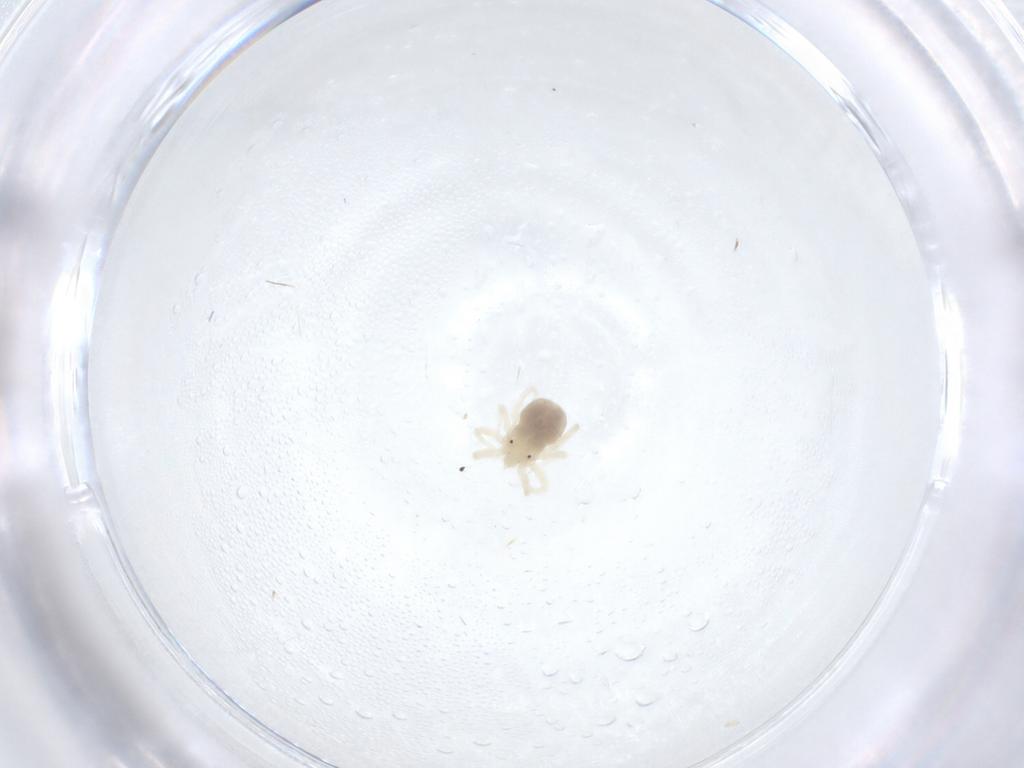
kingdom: Animalia
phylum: Arthropoda
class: Arachnida
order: Trombidiformes
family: Anystidae
